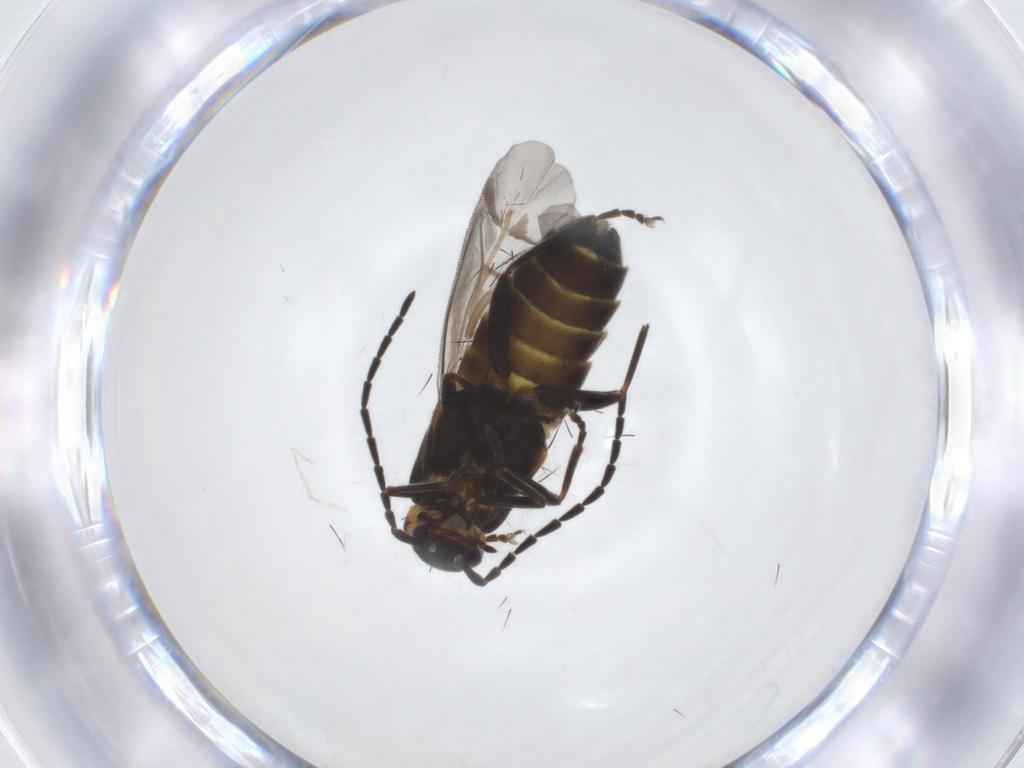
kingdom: Animalia
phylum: Arthropoda
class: Insecta
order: Coleoptera
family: Cantharidae
